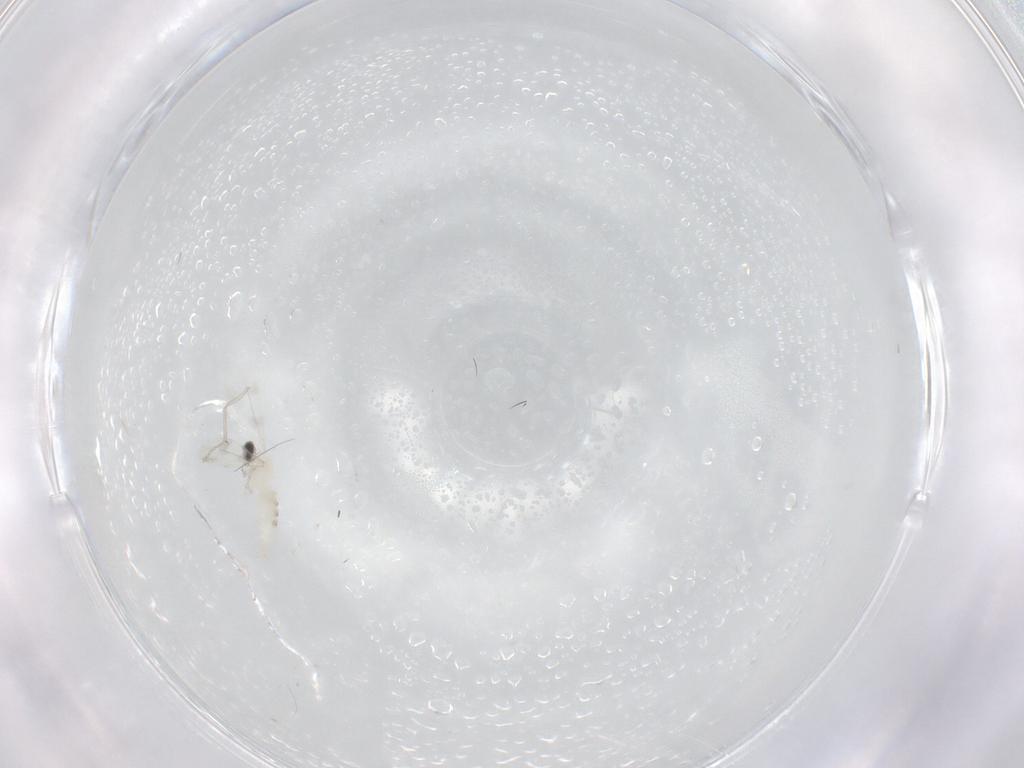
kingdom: Animalia
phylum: Arthropoda
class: Insecta
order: Diptera
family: Cecidomyiidae
